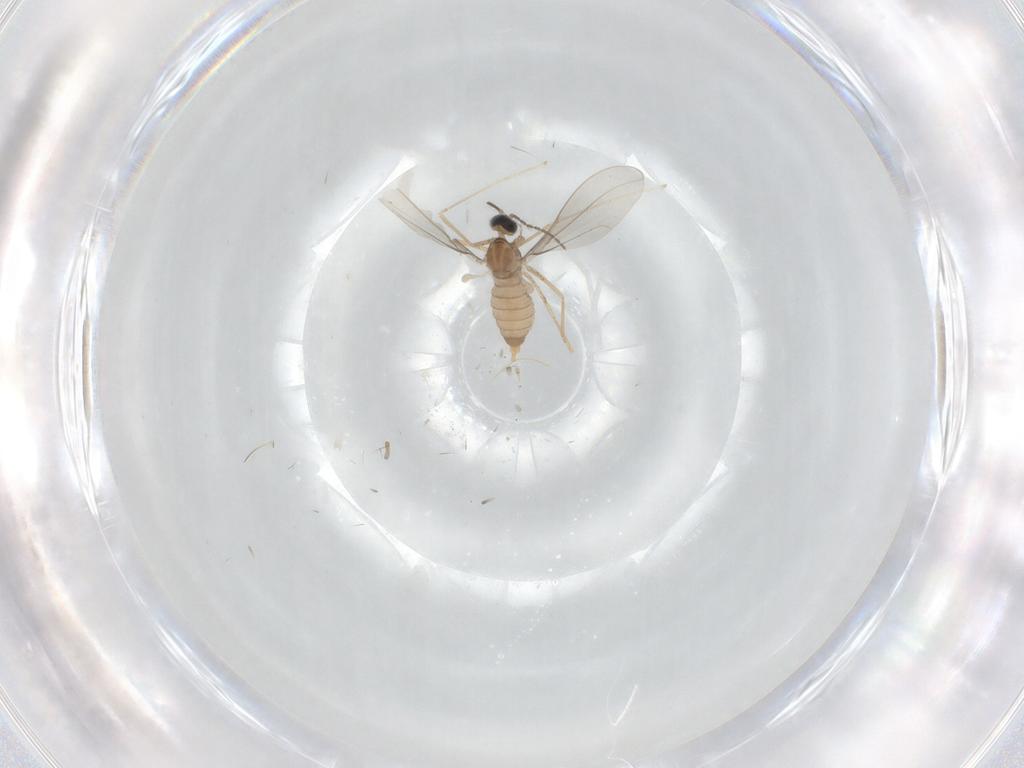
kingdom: Animalia
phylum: Arthropoda
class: Insecta
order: Diptera
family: Cecidomyiidae
